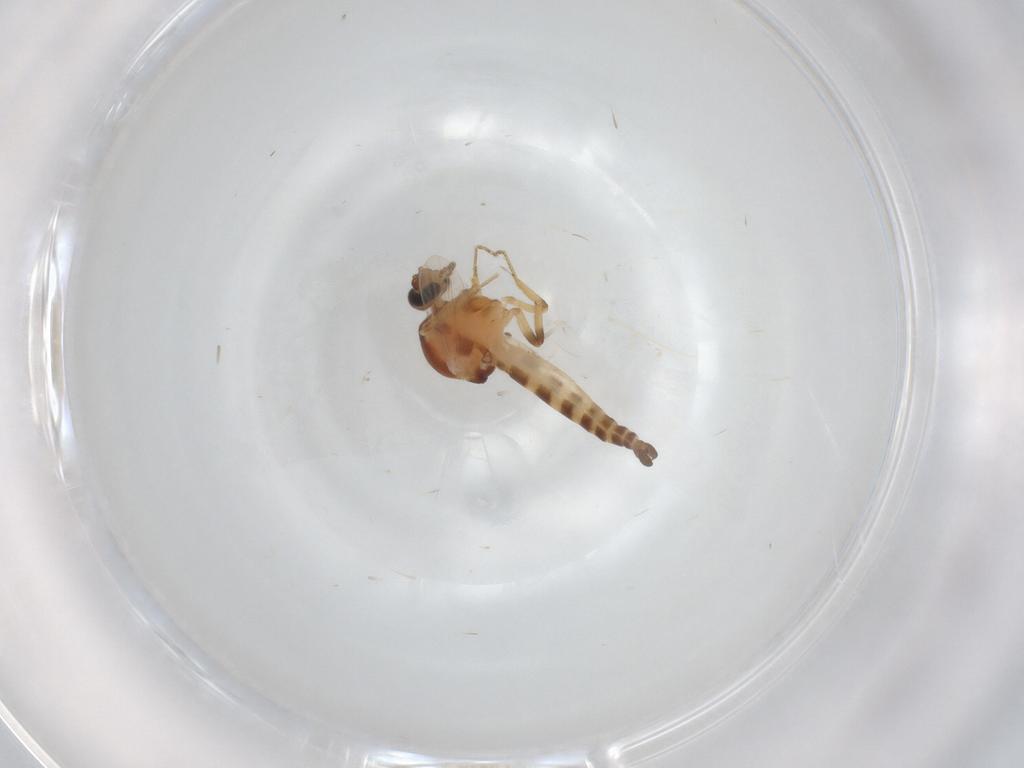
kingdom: Animalia
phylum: Arthropoda
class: Insecta
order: Diptera
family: Ceratopogonidae
